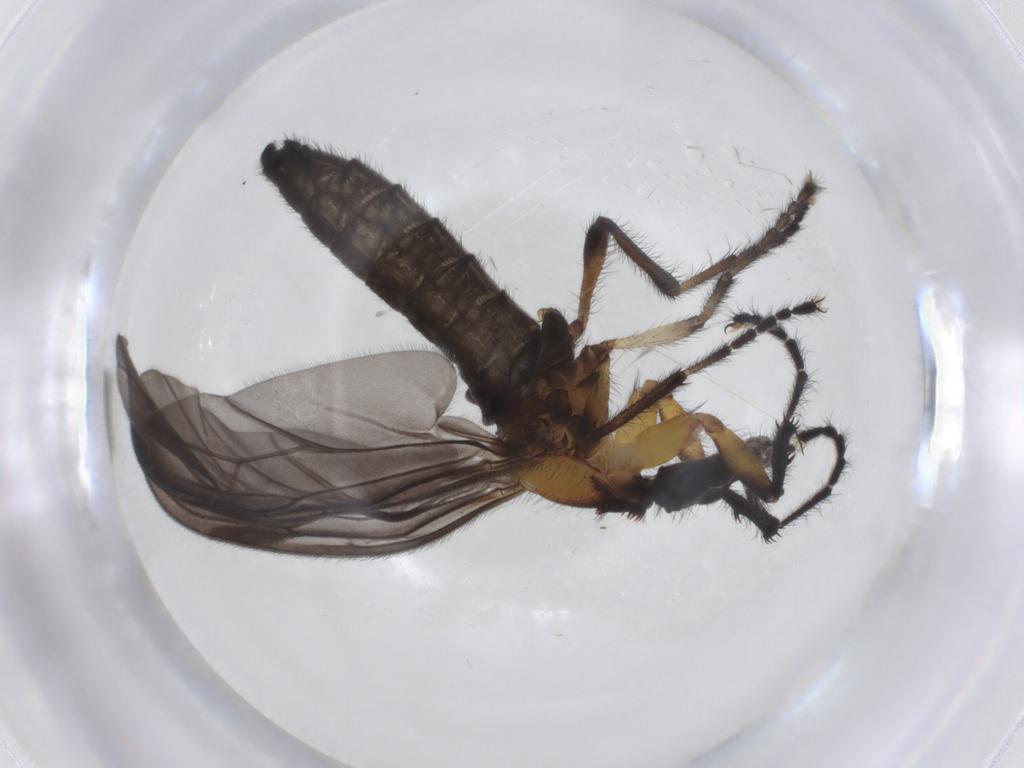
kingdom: Animalia
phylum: Arthropoda
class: Insecta
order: Diptera
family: Bibionidae
